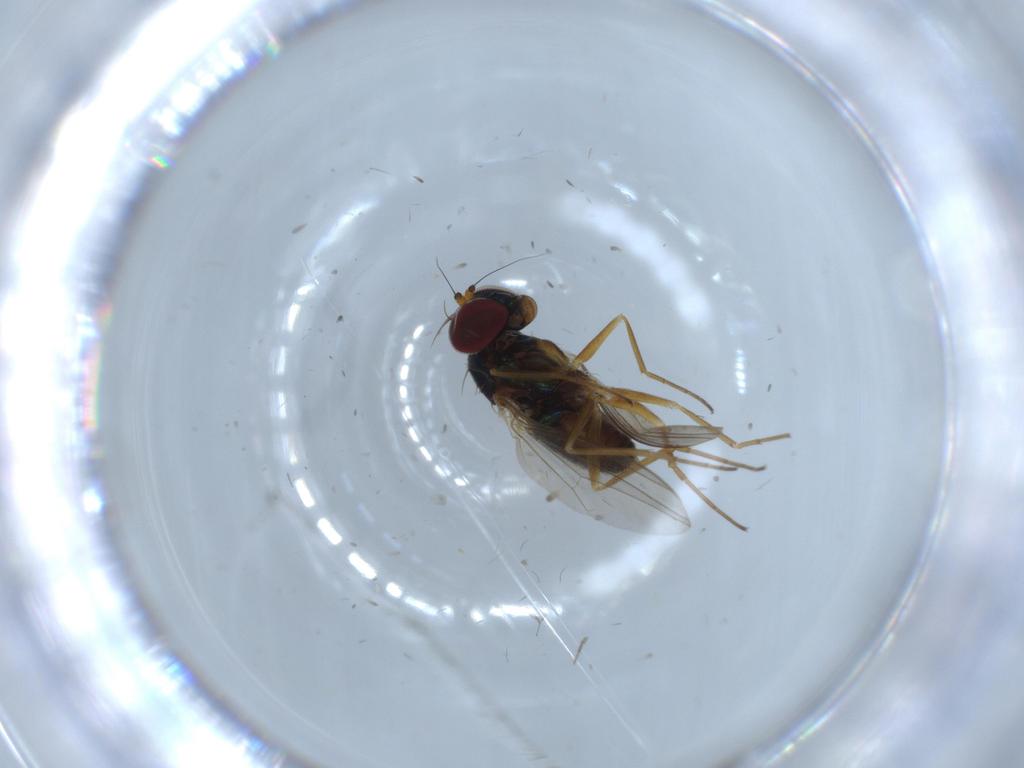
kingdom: Animalia
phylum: Arthropoda
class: Insecta
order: Diptera
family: Dolichopodidae
